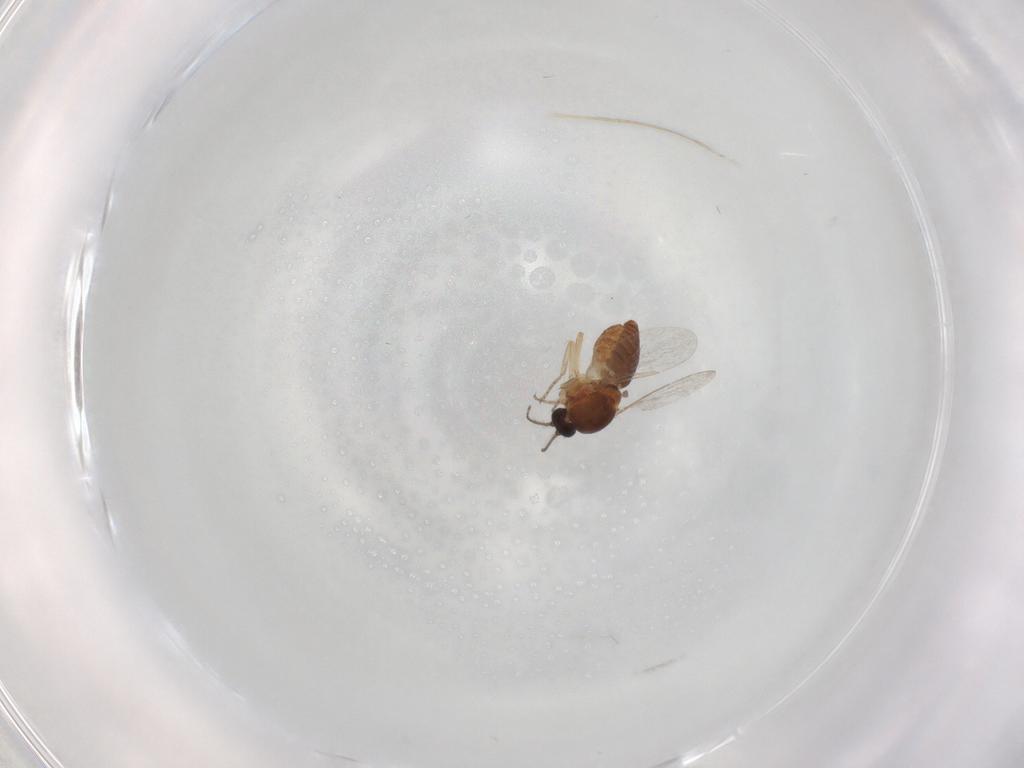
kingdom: Animalia
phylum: Arthropoda
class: Insecta
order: Diptera
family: Ceratopogonidae
